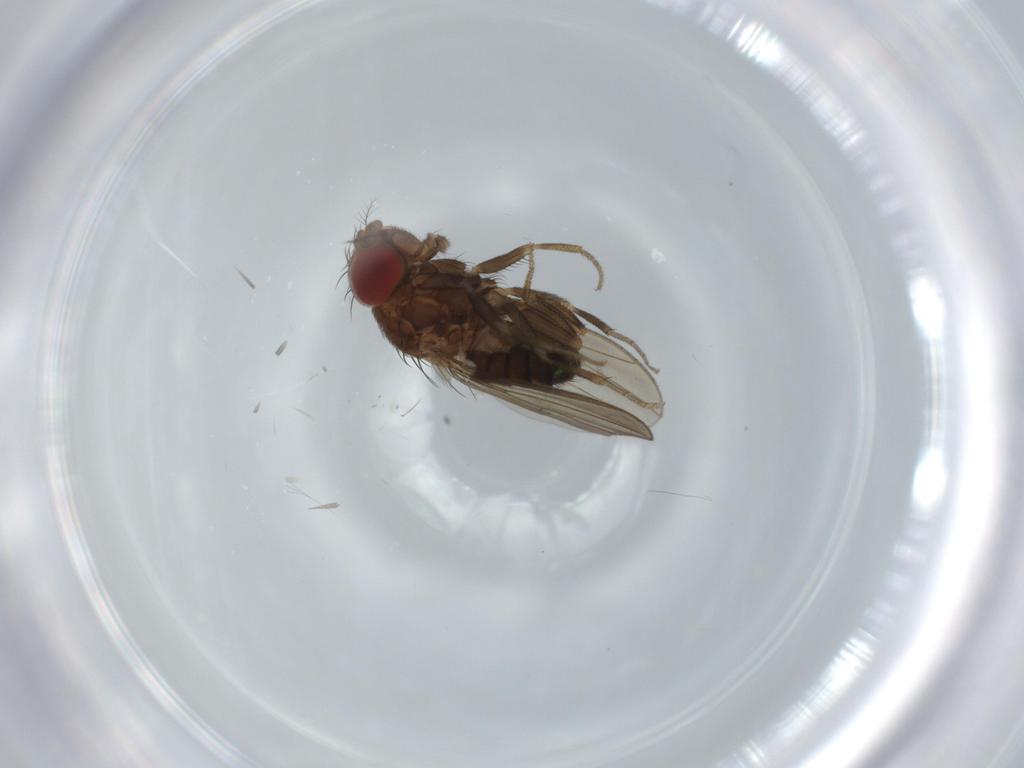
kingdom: Animalia
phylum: Arthropoda
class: Insecta
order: Diptera
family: Drosophilidae
